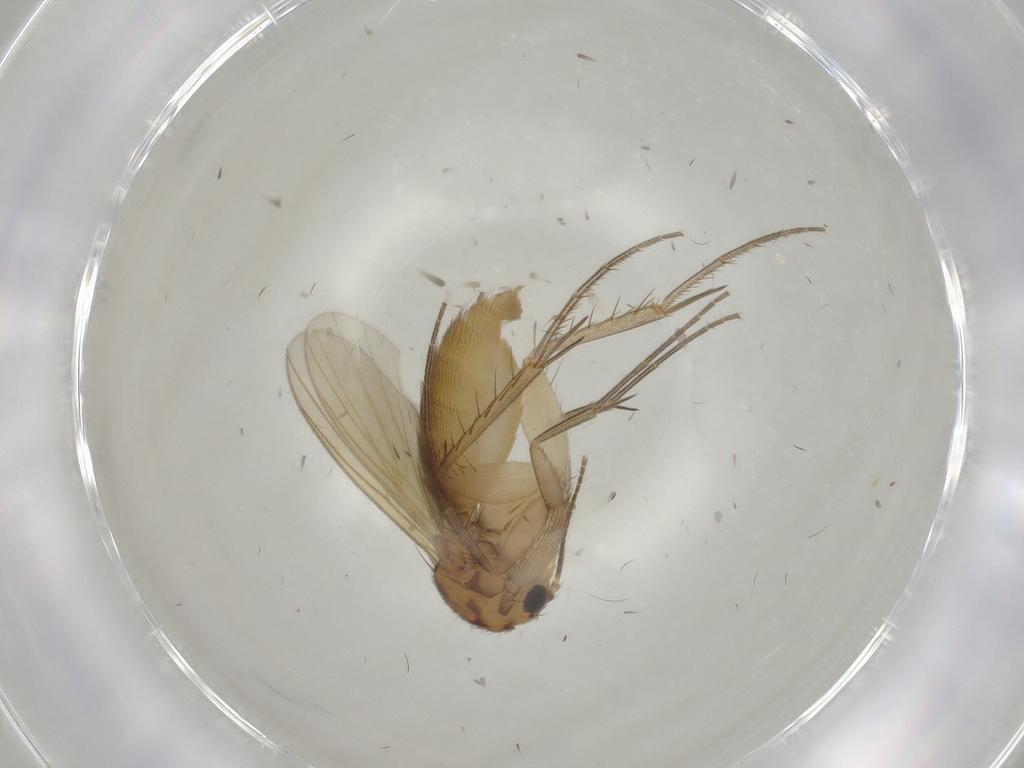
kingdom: Animalia
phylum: Arthropoda
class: Insecta
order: Diptera
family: Mycetophilidae
